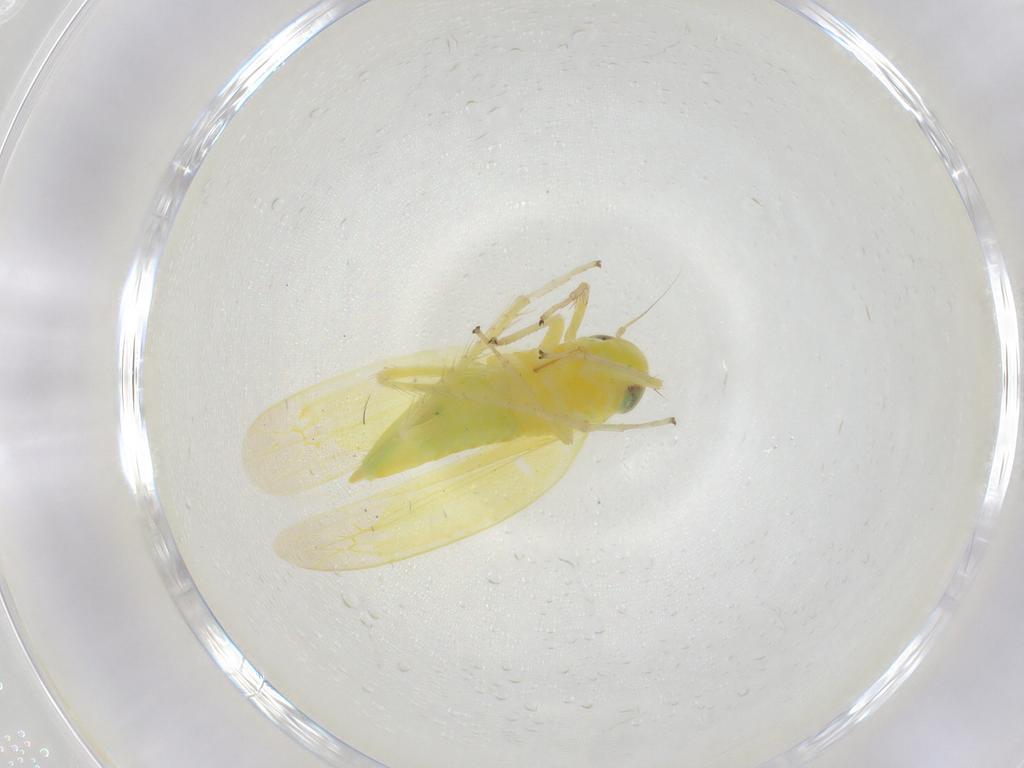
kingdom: Animalia
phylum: Arthropoda
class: Insecta
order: Hemiptera
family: Cicadellidae
